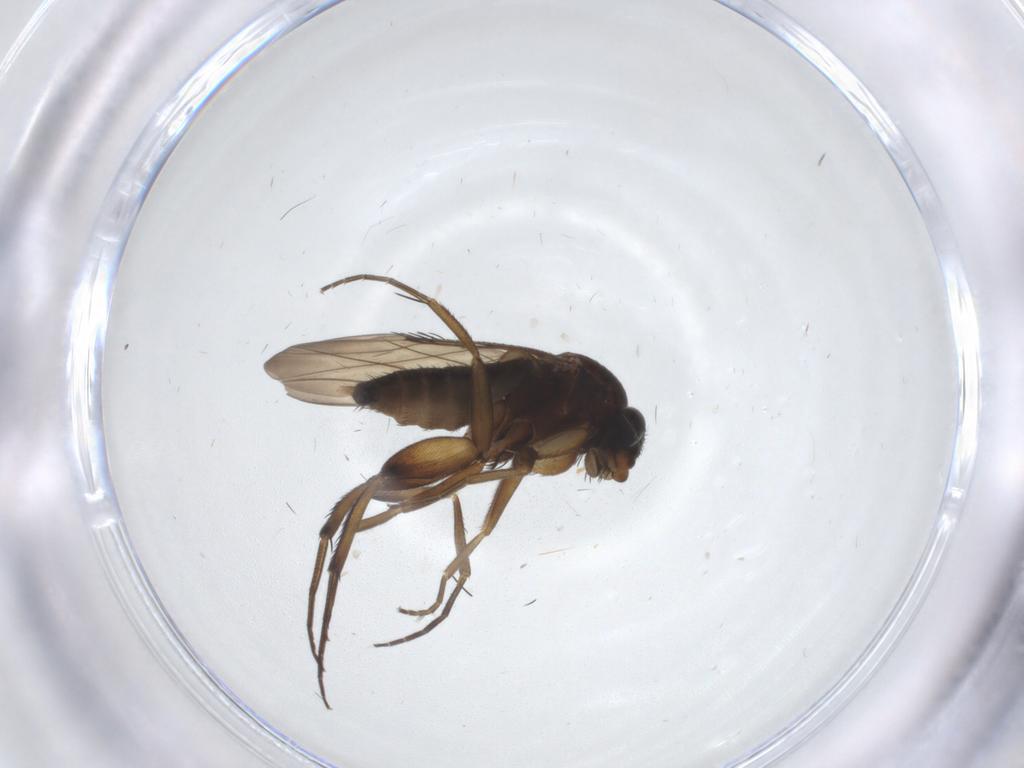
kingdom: Animalia
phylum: Arthropoda
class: Insecta
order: Diptera
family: Phoridae
